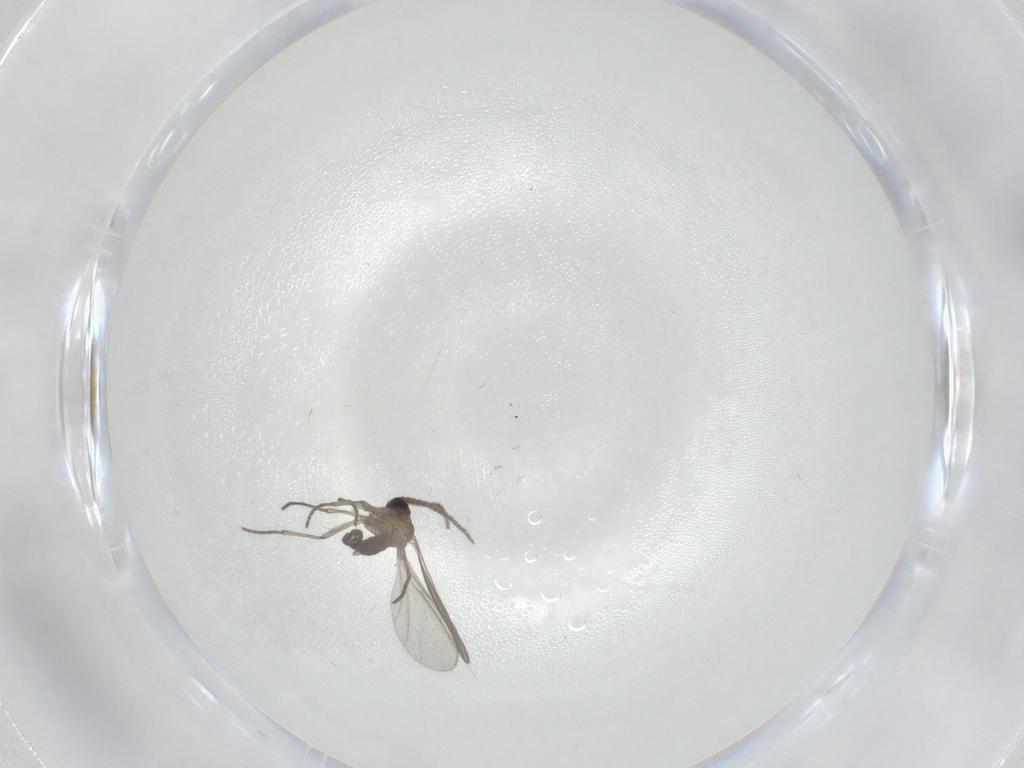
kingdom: Animalia
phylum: Arthropoda
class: Insecta
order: Diptera
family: Sciaridae
